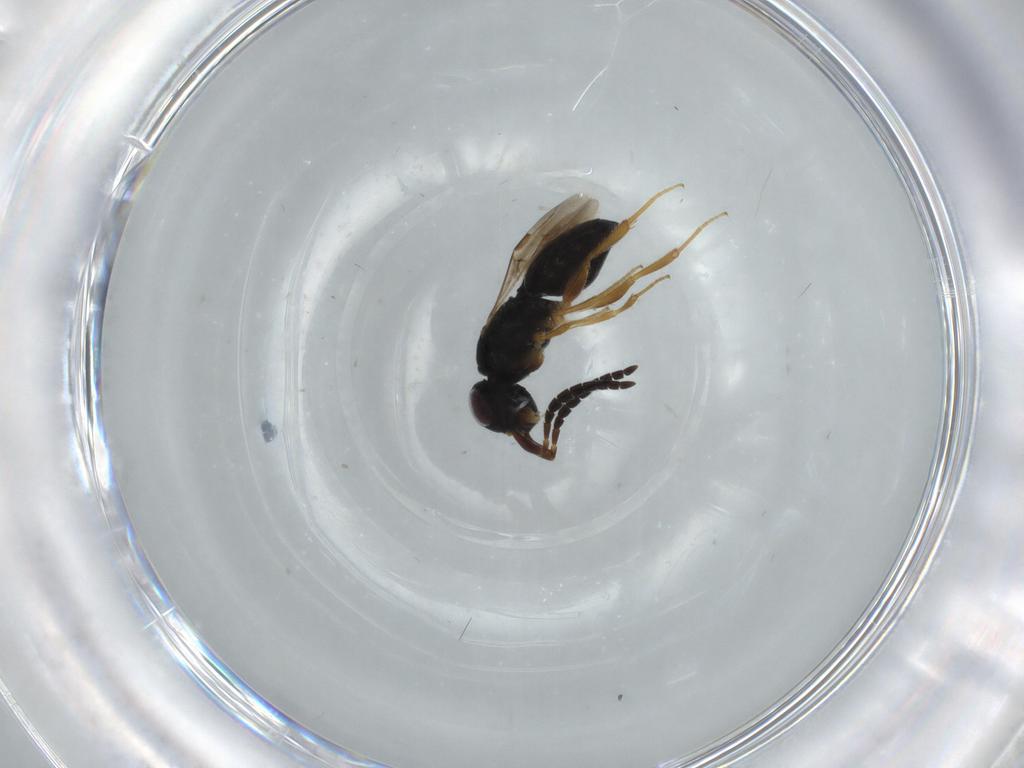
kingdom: Animalia
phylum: Arthropoda
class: Insecta
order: Hymenoptera
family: Megaspilidae
